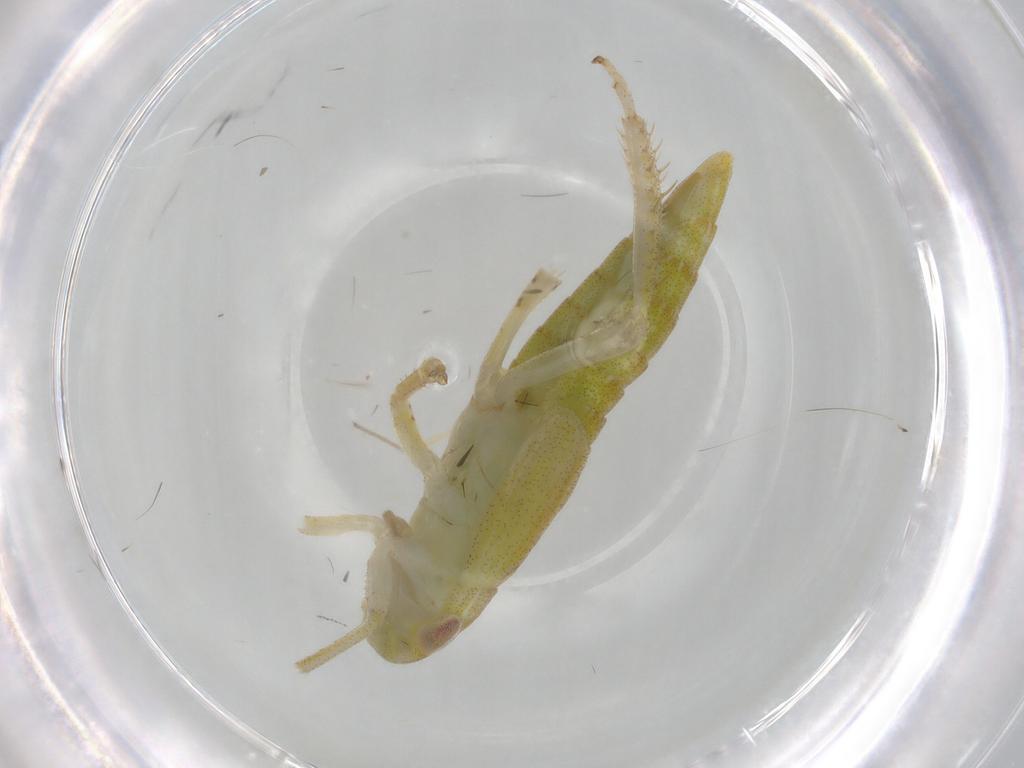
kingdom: Animalia
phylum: Arthropoda
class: Insecta
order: Hemiptera
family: Cicadellidae
